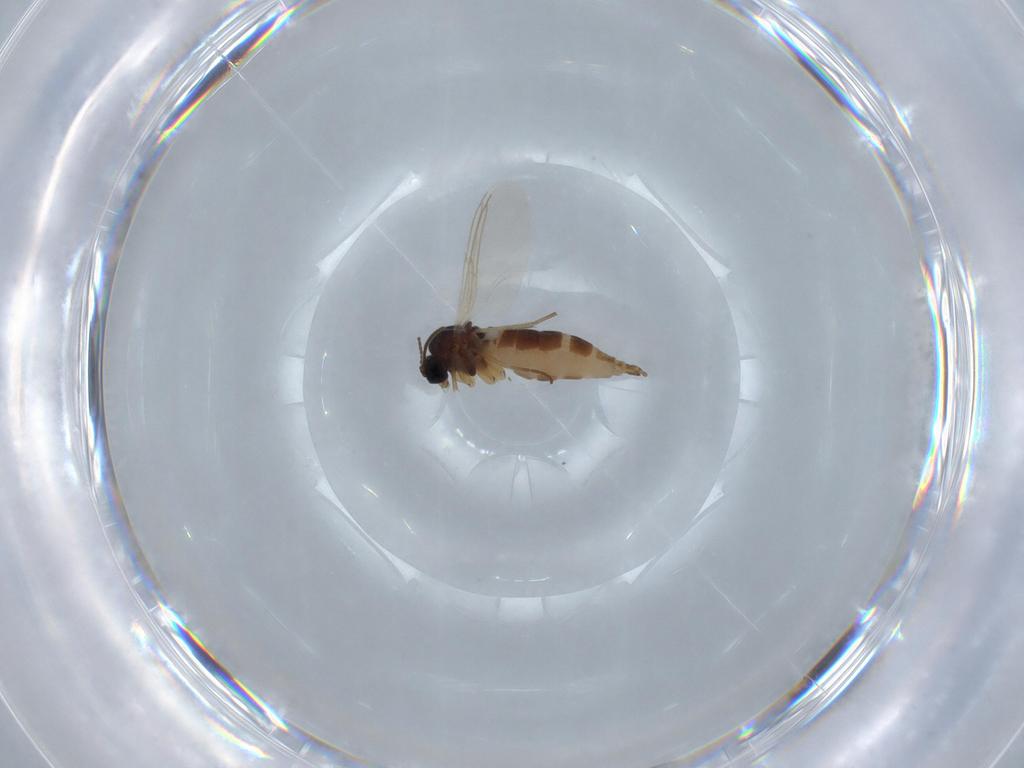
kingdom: Animalia
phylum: Arthropoda
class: Insecta
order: Diptera
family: Sciaridae
